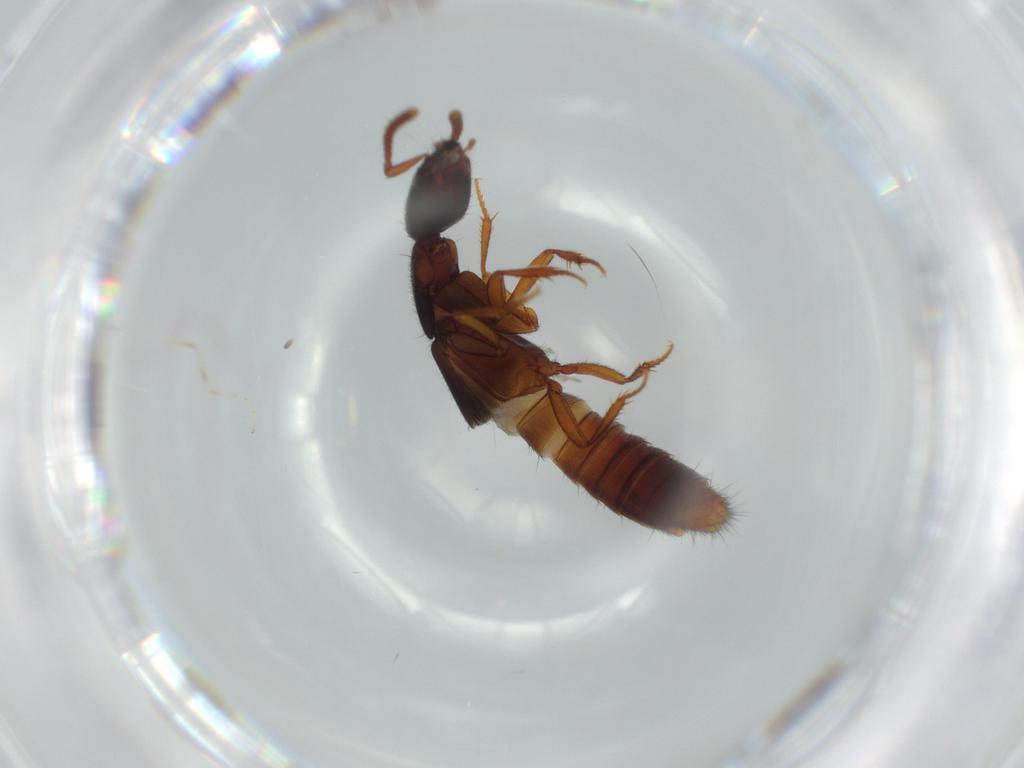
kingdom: Animalia
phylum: Arthropoda
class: Insecta
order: Coleoptera
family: Staphylinidae
